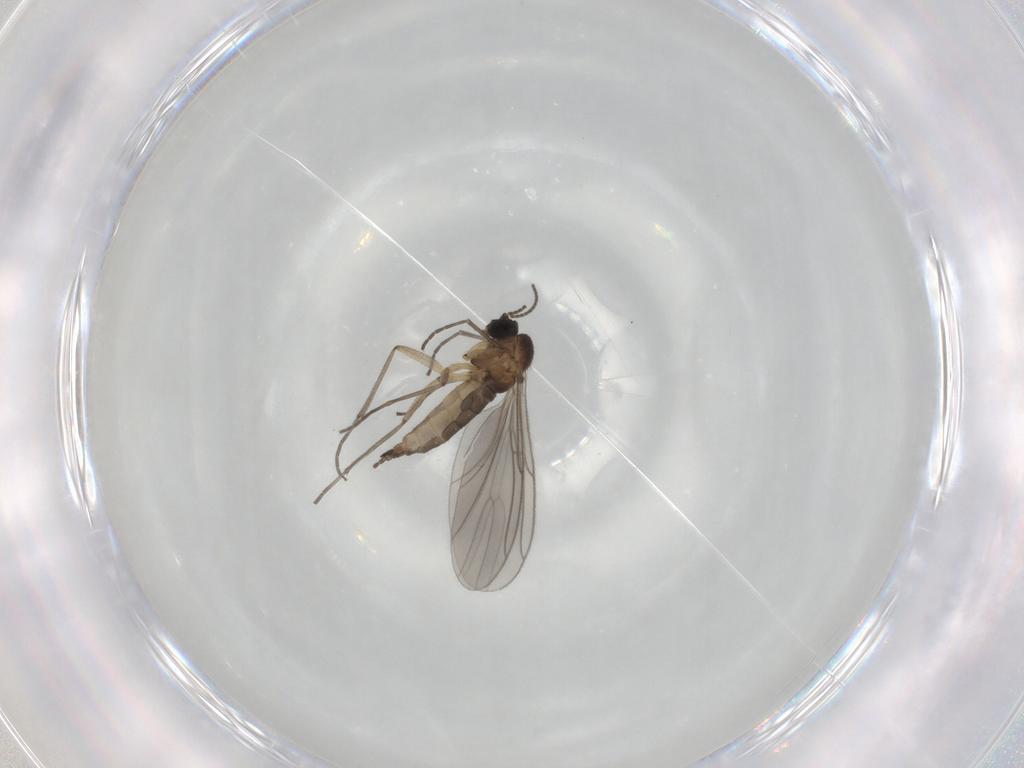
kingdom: Animalia
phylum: Arthropoda
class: Insecta
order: Diptera
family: Sciaridae
